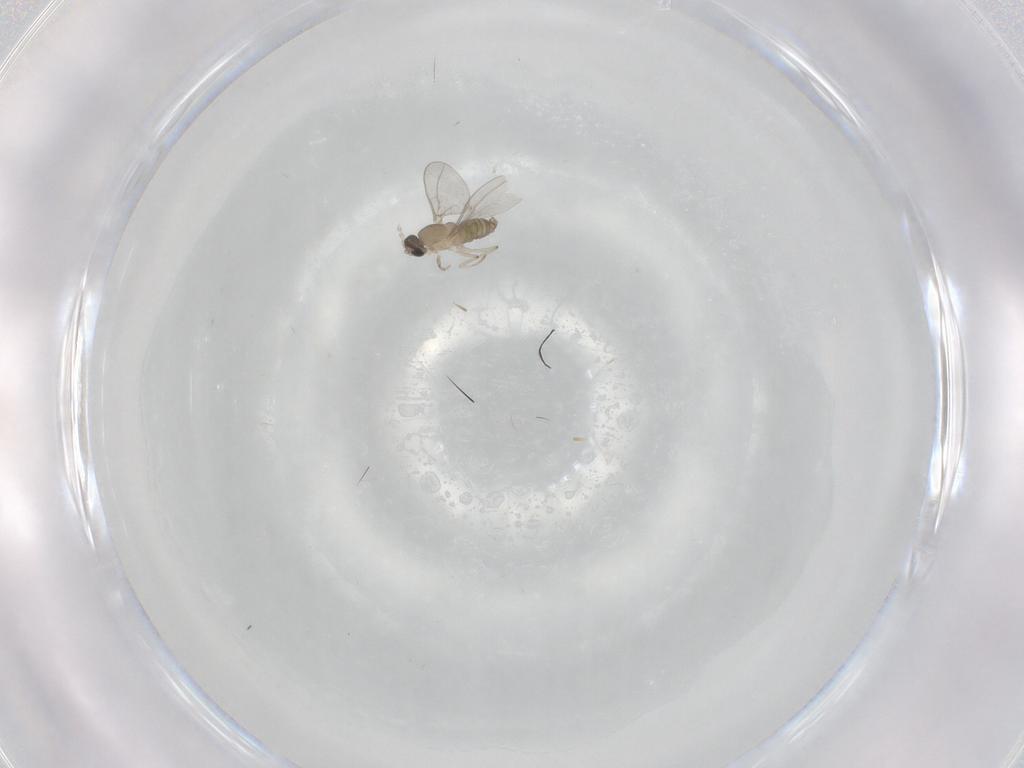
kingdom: Animalia
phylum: Arthropoda
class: Insecta
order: Diptera
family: Cecidomyiidae
